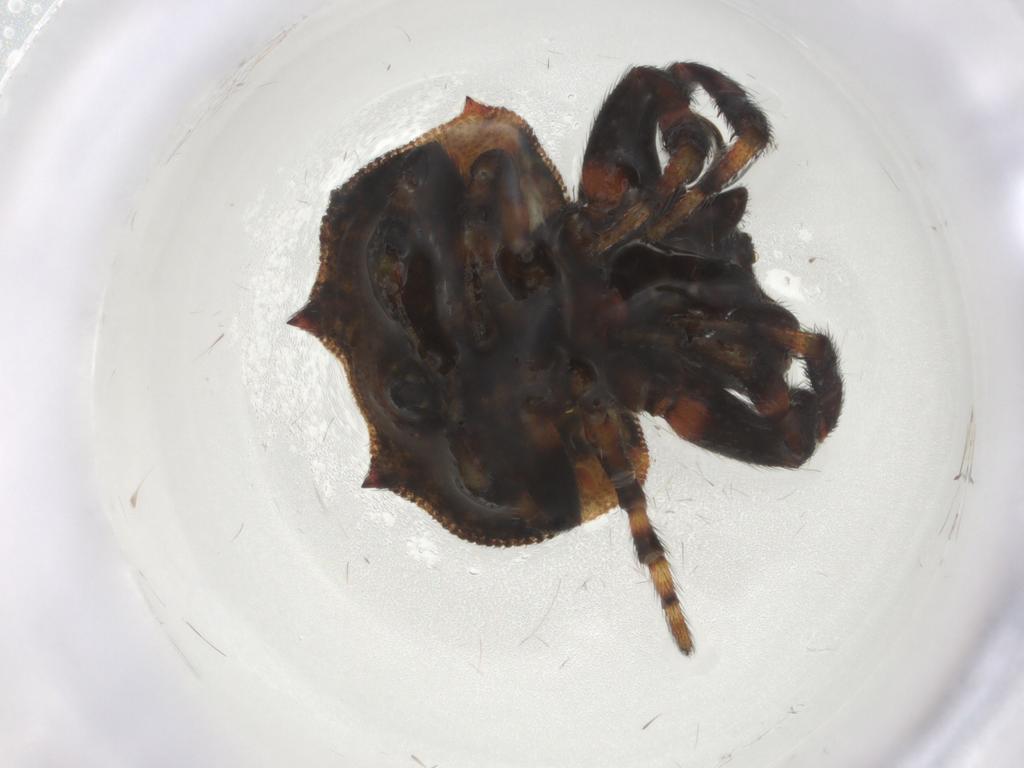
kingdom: Animalia
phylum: Arthropoda
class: Arachnida
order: Araneae
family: Araneidae
